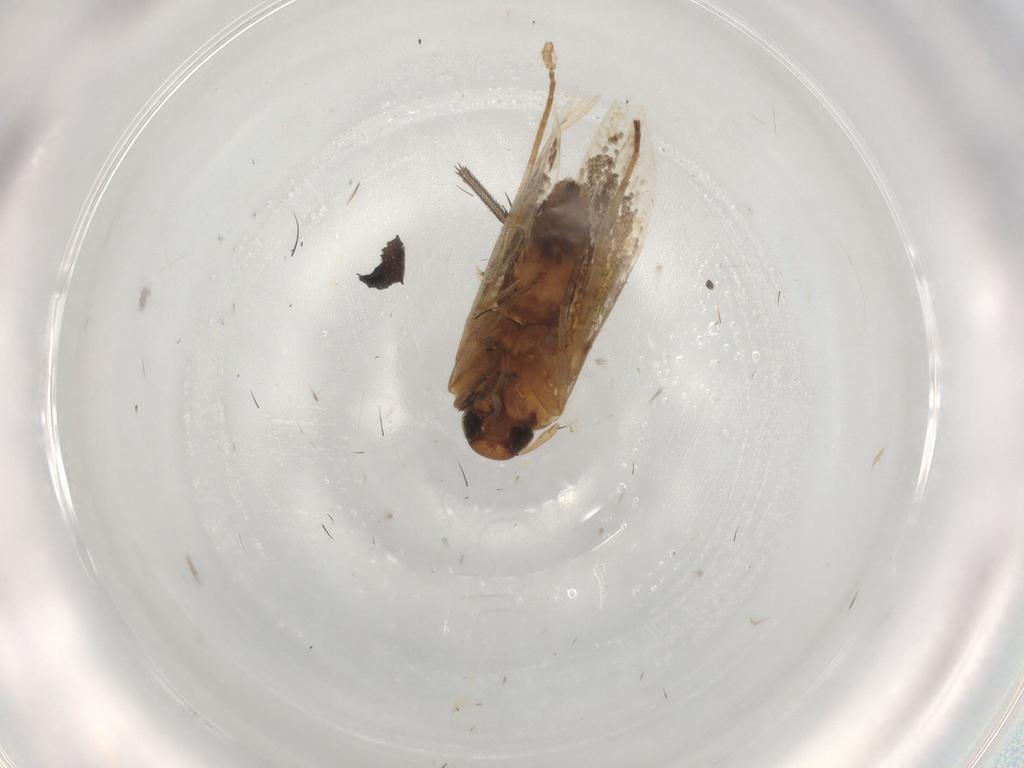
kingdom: Animalia
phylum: Arthropoda
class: Insecta
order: Lepidoptera
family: Cosmopterigidae
